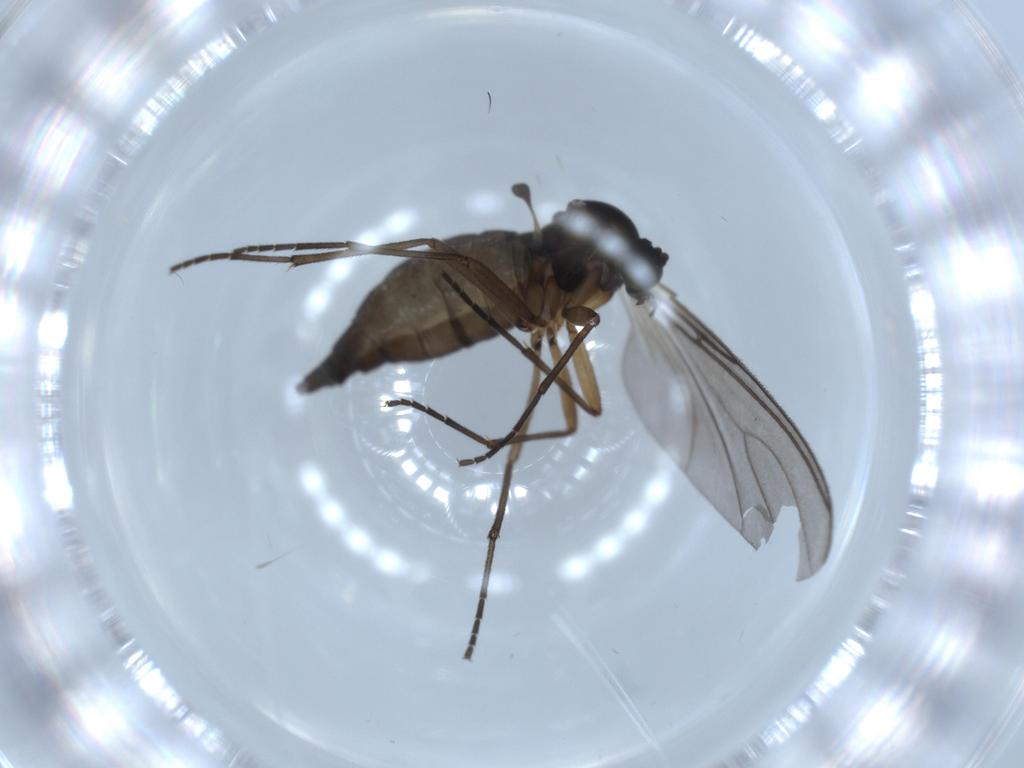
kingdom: Animalia
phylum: Arthropoda
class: Insecta
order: Diptera
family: Sciaridae
